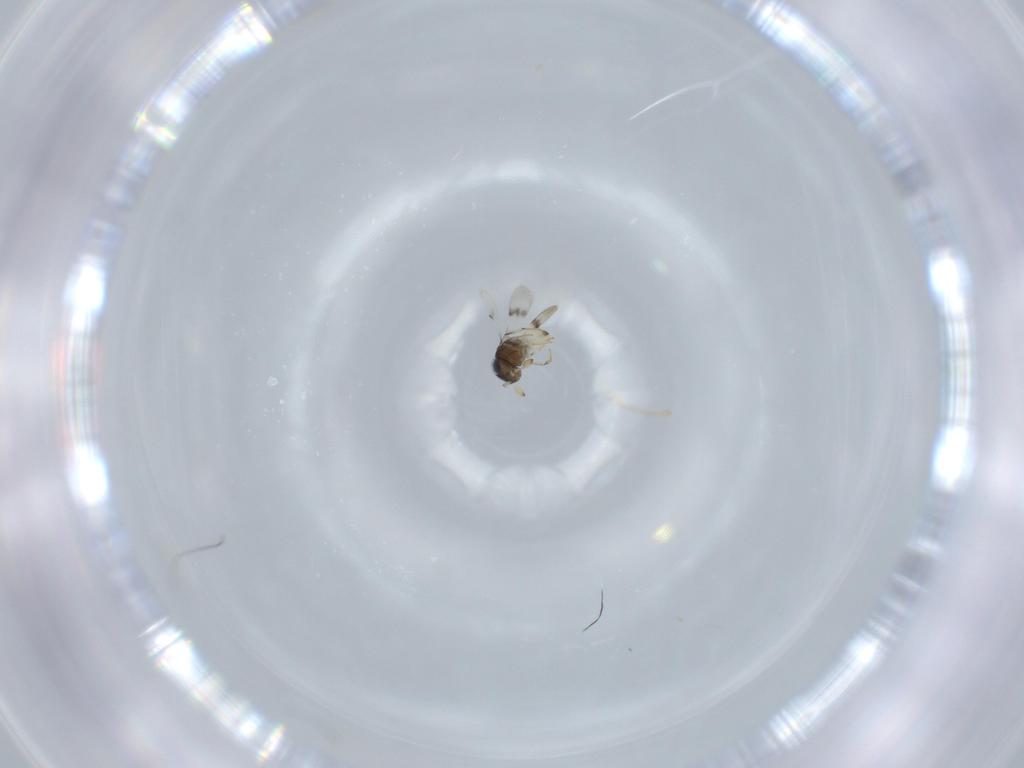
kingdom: Animalia
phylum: Arthropoda
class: Insecta
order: Hymenoptera
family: Scelionidae
